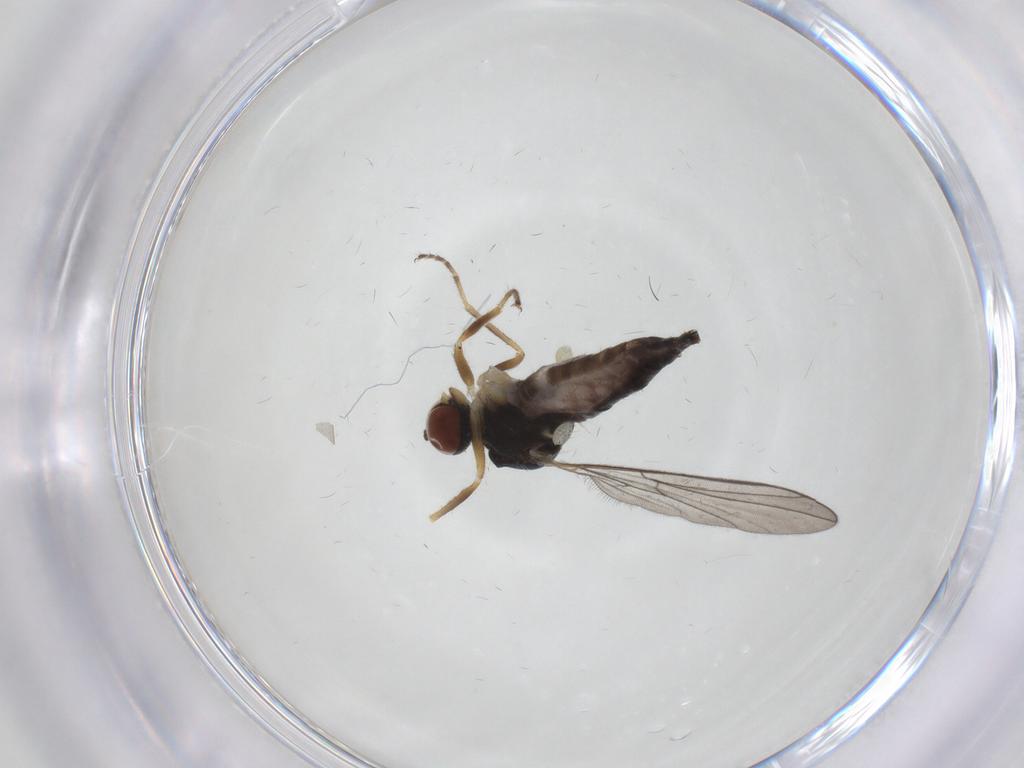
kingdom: Animalia
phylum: Arthropoda
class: Insecta
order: Diptera
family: Hybotidae
